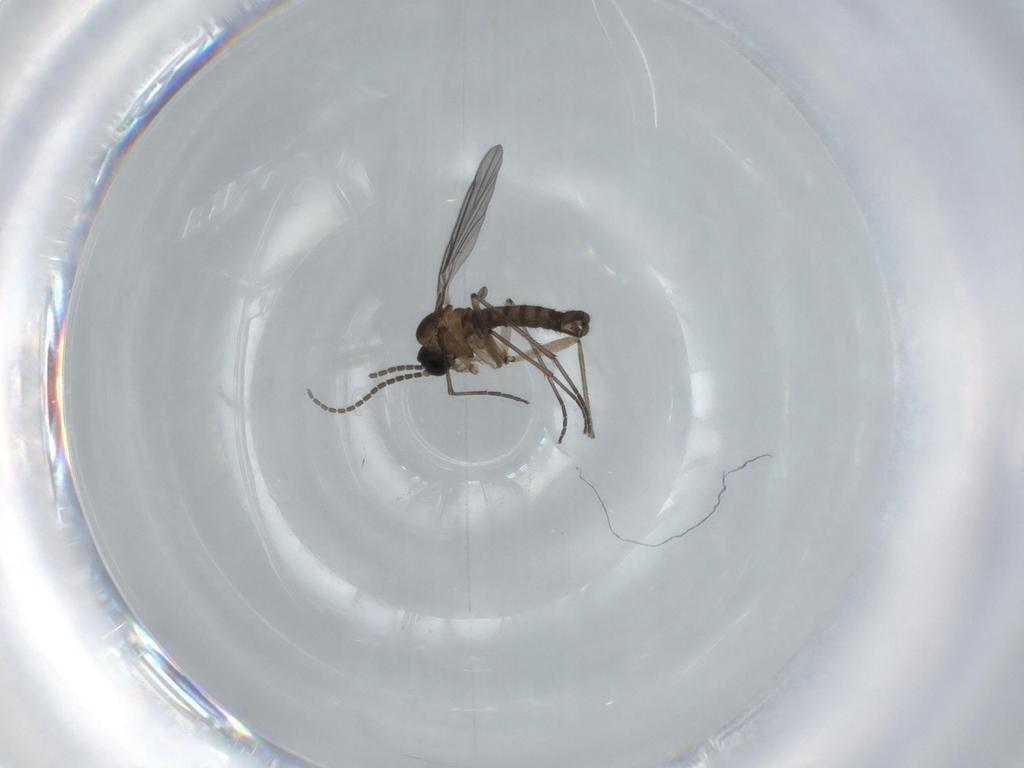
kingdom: Animalia
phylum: Arthropoda
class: Insecta
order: Diptera
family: Sciaridae
